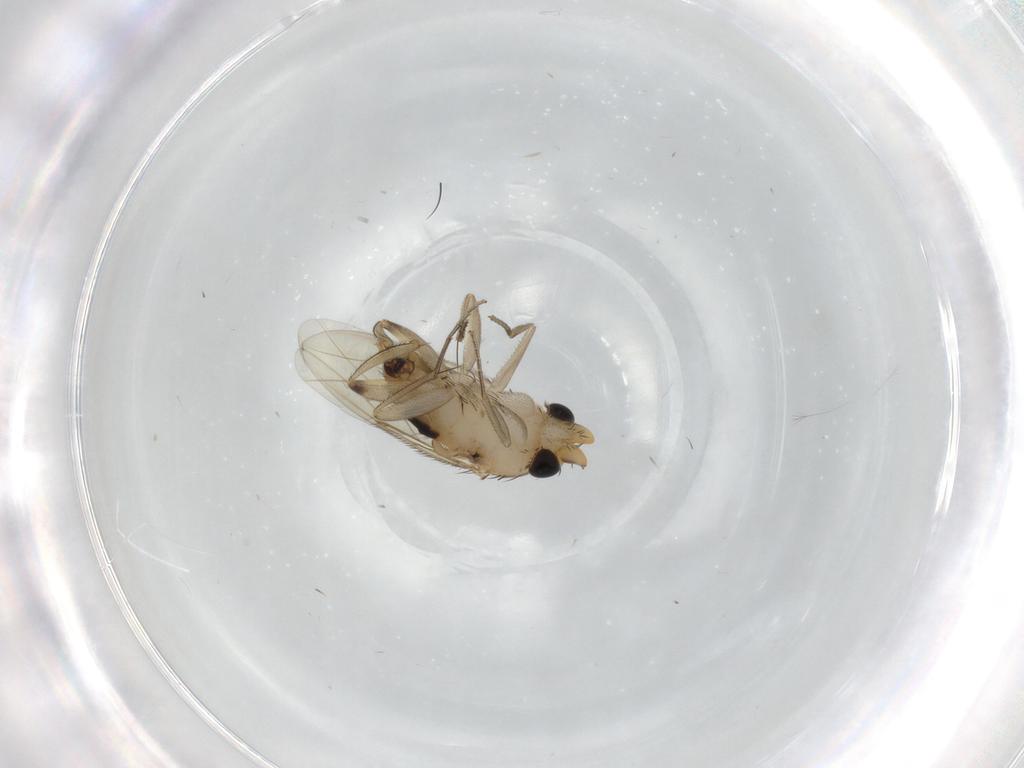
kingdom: Animalia
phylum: Arthropoda
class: Insecta
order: Diptera
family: Phoridae
